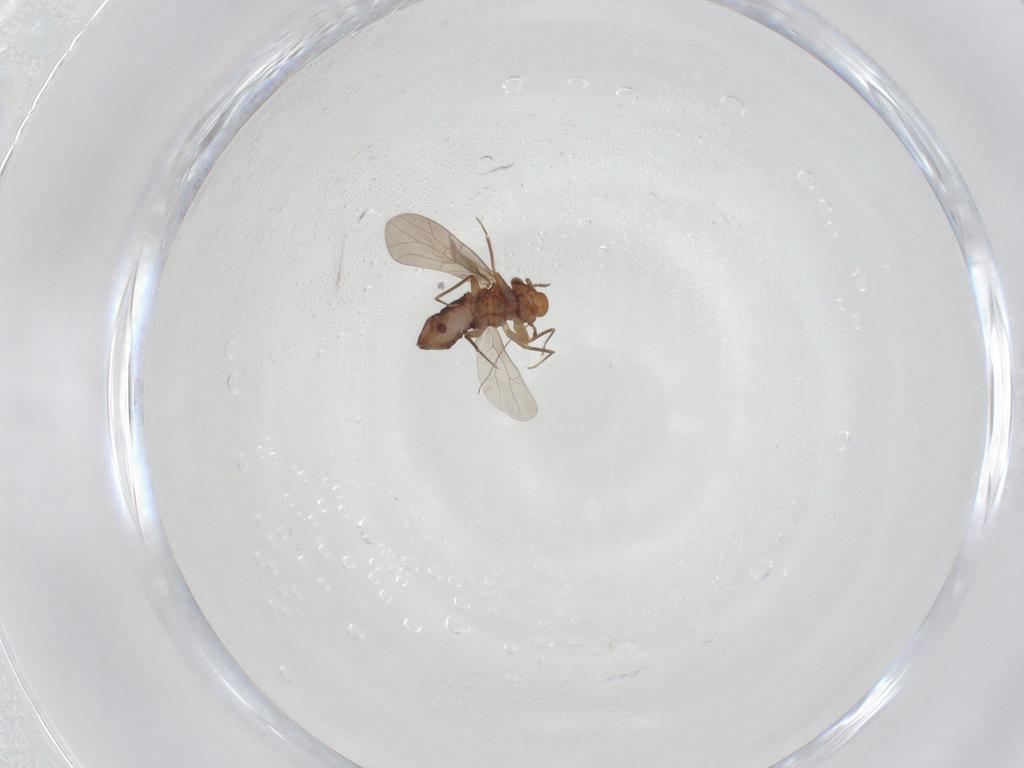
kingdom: Animalia
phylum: Arthropoda
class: Insecta
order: Psocodea
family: Lepidopsocidae
